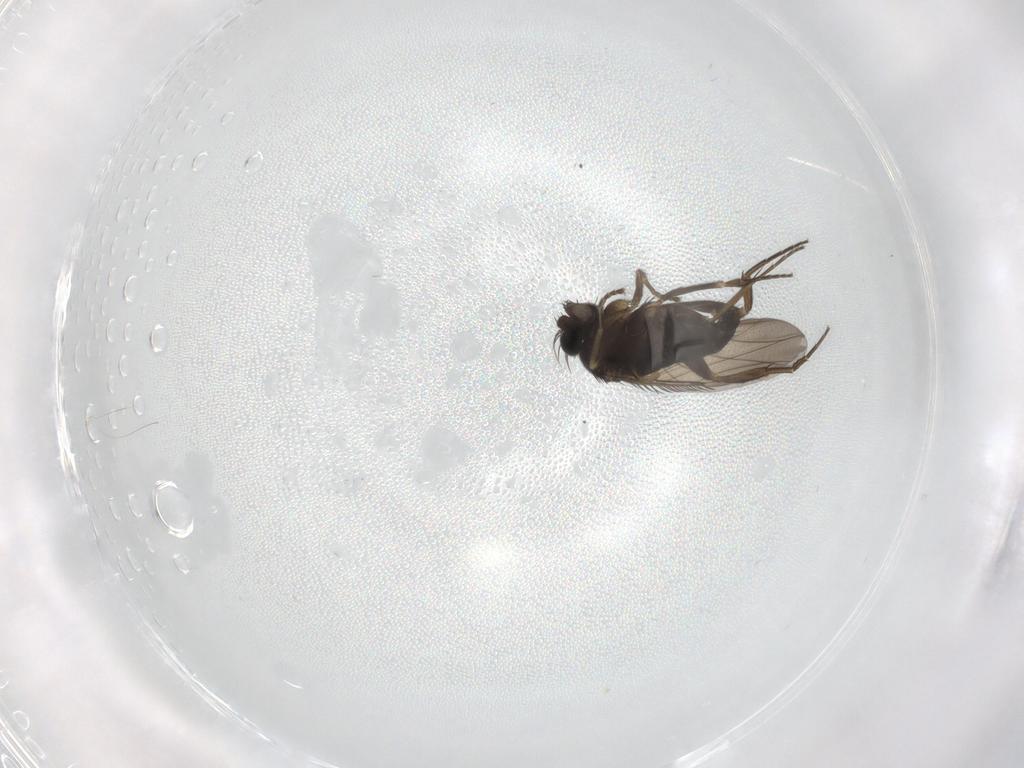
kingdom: Animalia
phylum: Arthropoda
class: Insecta
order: Diptera
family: Phoridae
